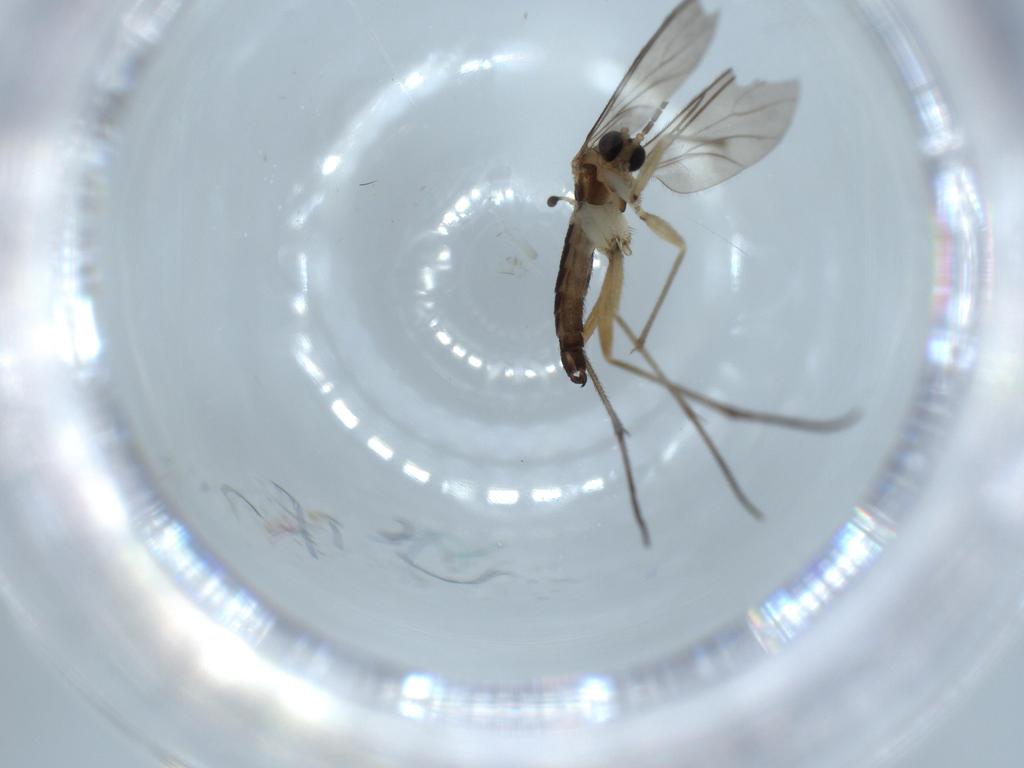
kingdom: Animalia
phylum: Arthropoda
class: Insecta
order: Diptera
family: Sciaridae
